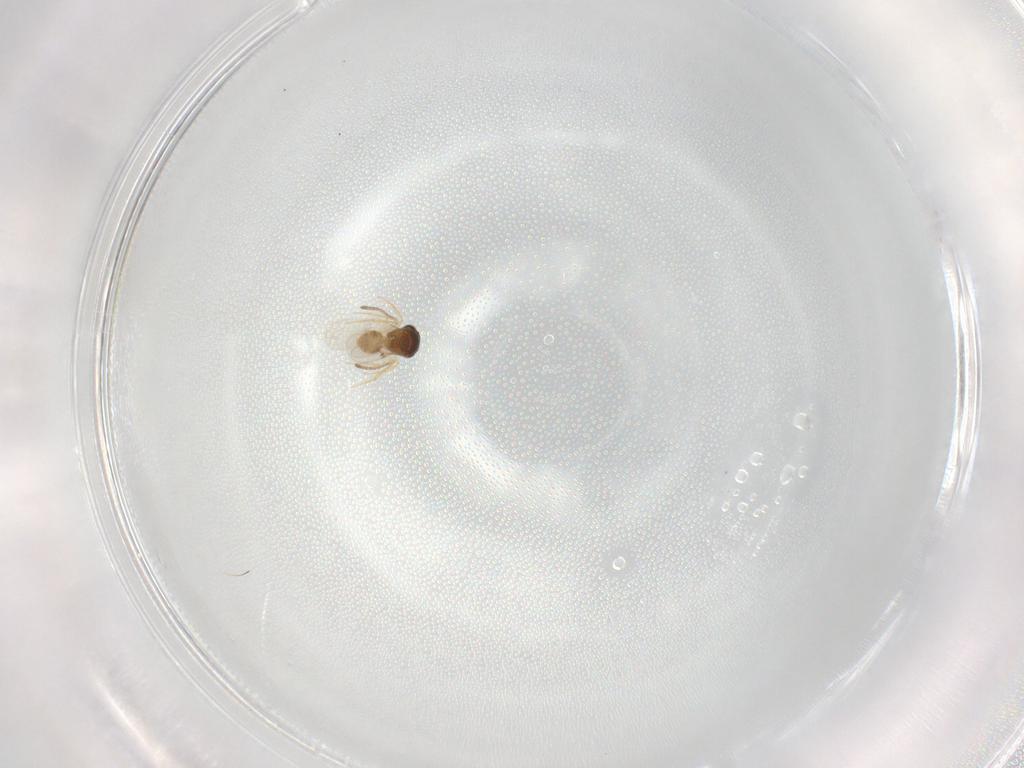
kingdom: Animalia
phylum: Arthropoda
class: Insecta
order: Hymenoptera
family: Scelionidae
